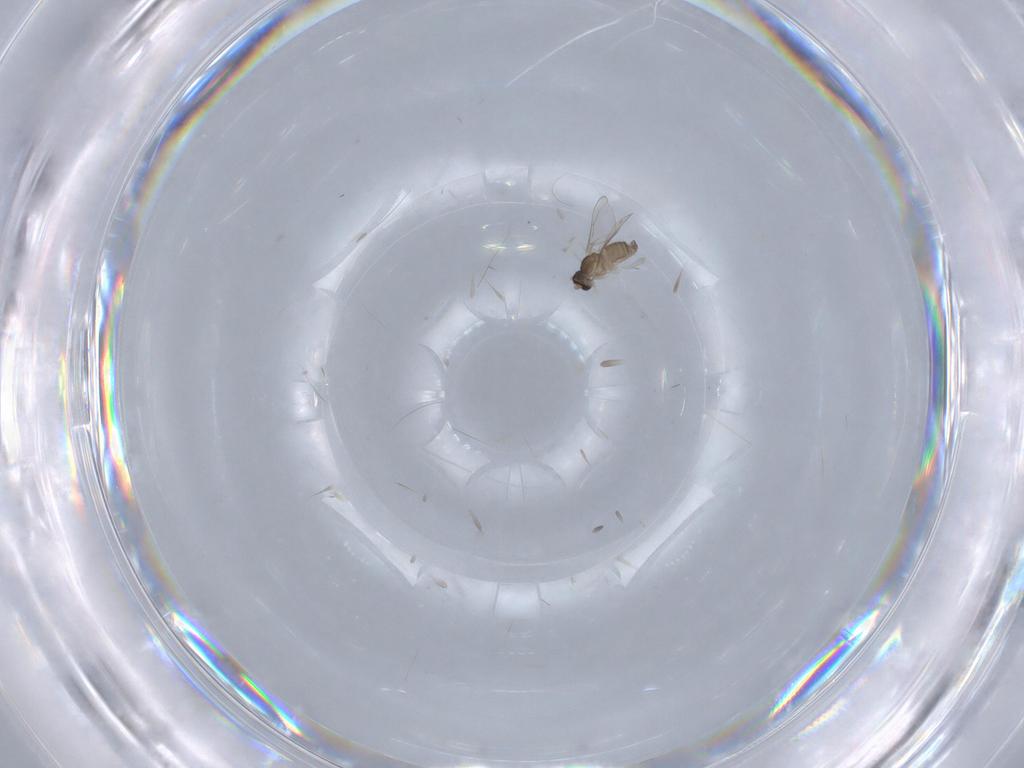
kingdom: Animalia
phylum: Arthropoda
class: Insecta
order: Diptera
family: Cecidomyiidae
